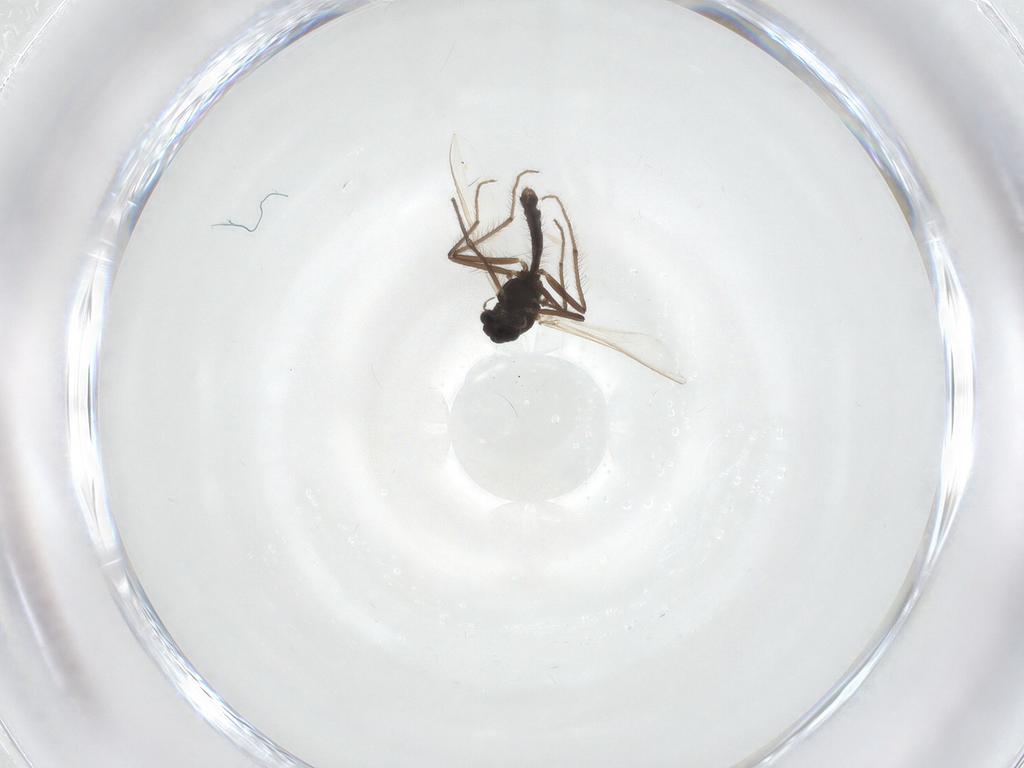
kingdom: Animalia
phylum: Arthropoda
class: Insecta
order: Diptera
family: Chironomidae
